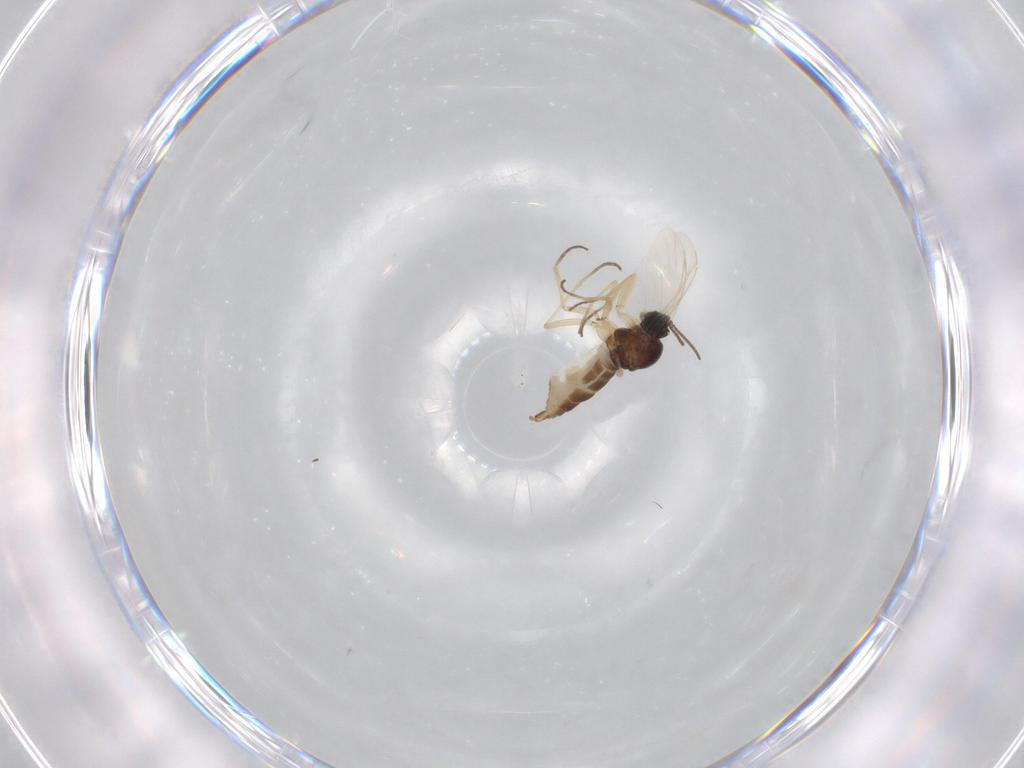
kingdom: Animalia
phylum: Arthropoda
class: Insecta
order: Diptera
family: Sciaridae
